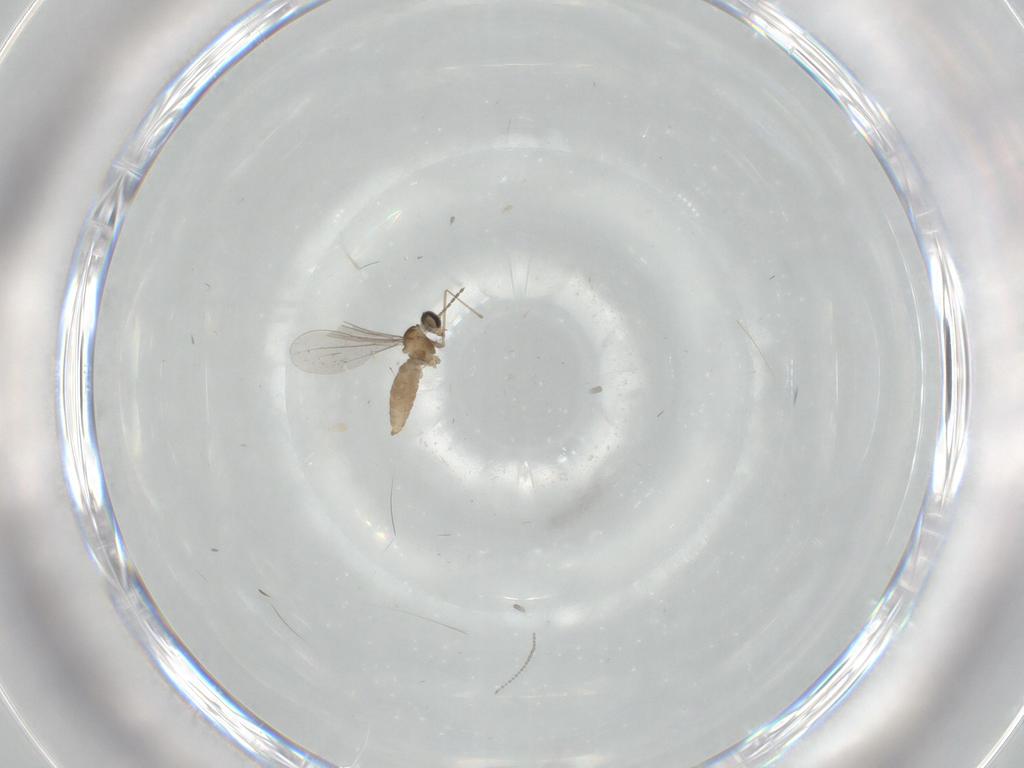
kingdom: Animalia
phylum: Arthropoda
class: Insecta
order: Diptera
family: Cecidomyiidae
